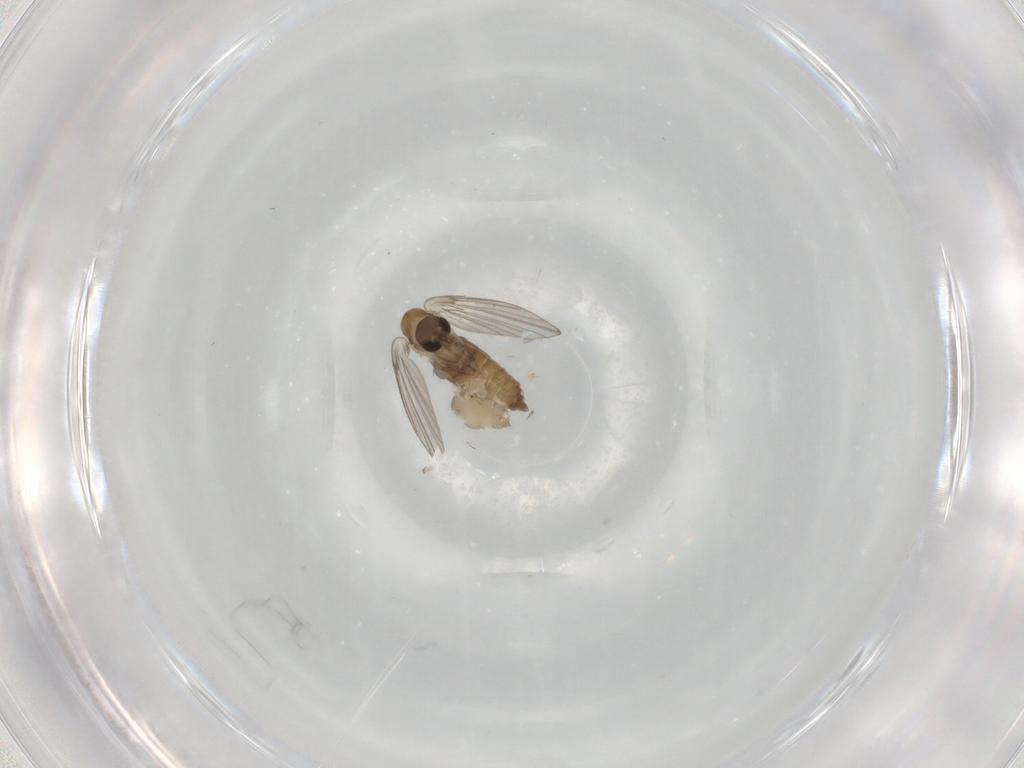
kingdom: Animalia
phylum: Arthropoda
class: Insecta
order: Diptera
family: Psychodidae
